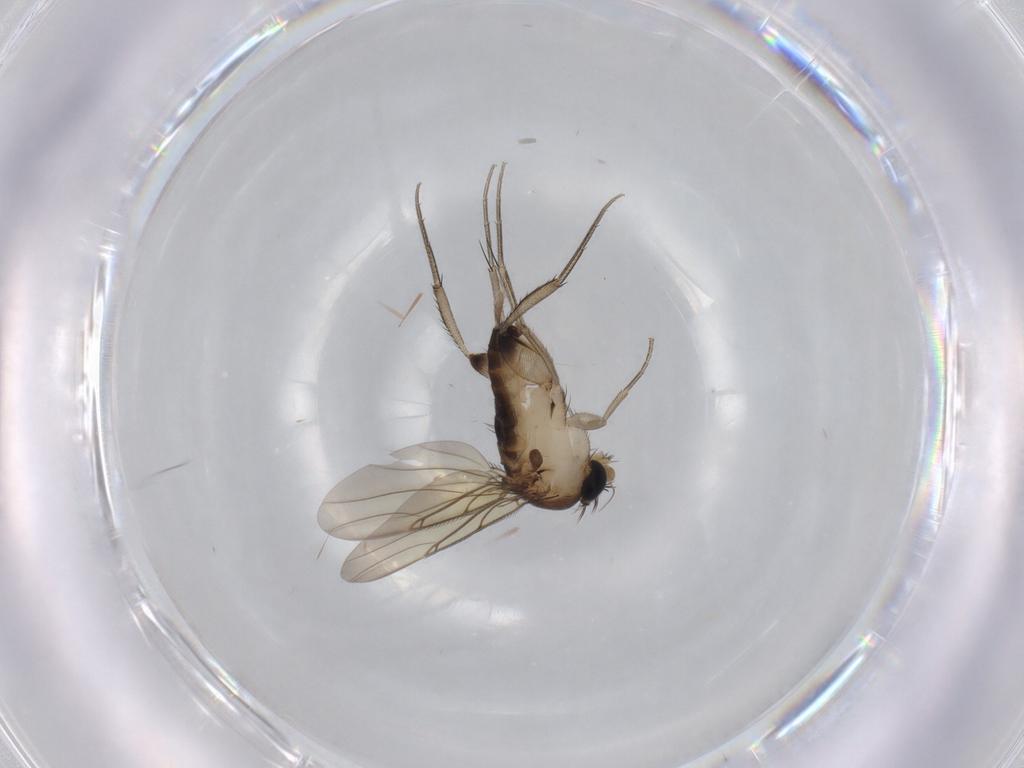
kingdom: Animalia
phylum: Arthropoda
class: Insecta
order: Diptera
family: Phoridae
